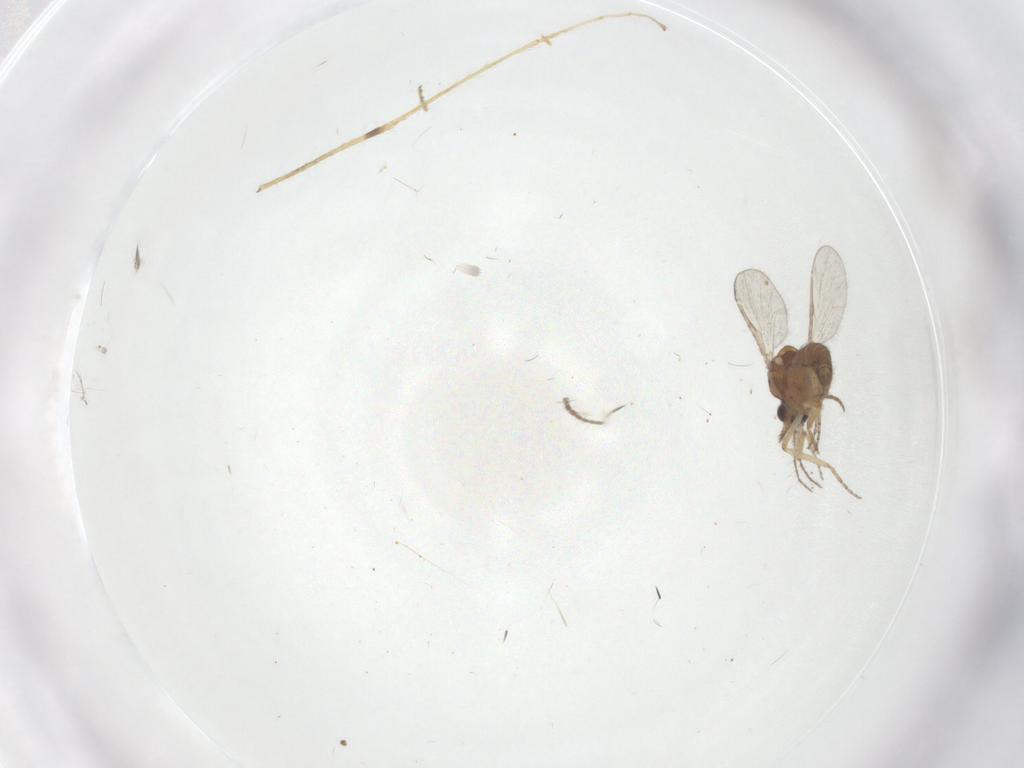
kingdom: Animalia
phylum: Arthropoda
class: Insecta
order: Diptera
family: Ceratopogonidae
